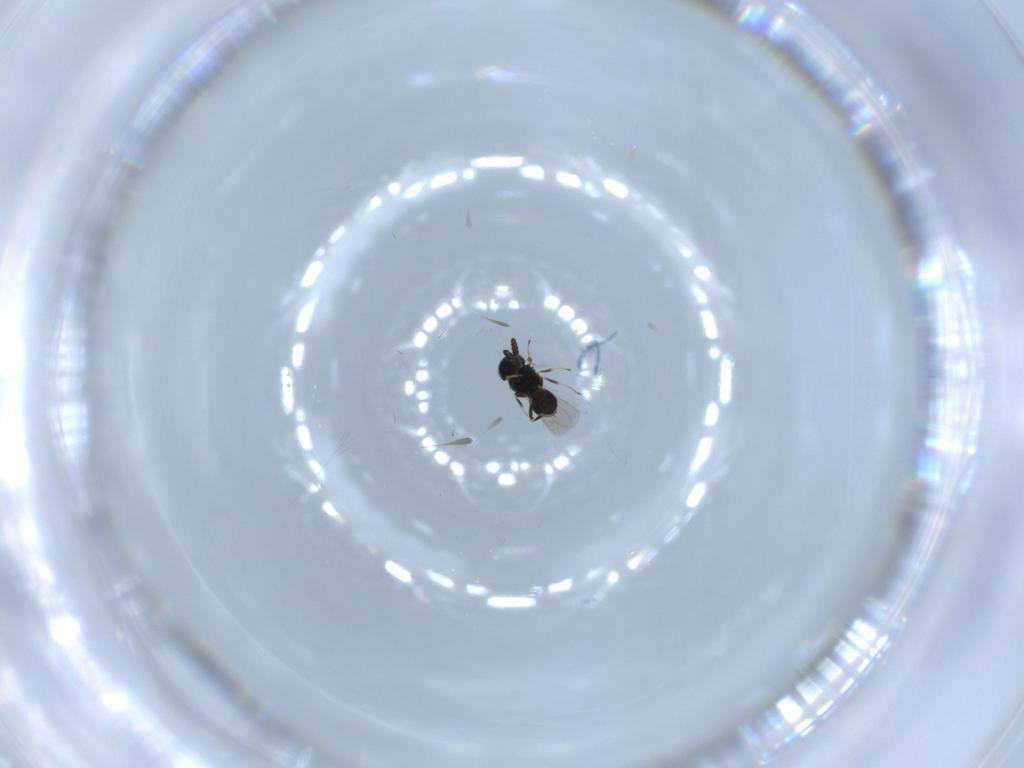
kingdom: Animalia
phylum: Arthropoda
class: Insecta
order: Hymenoptera
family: Scelionidae
